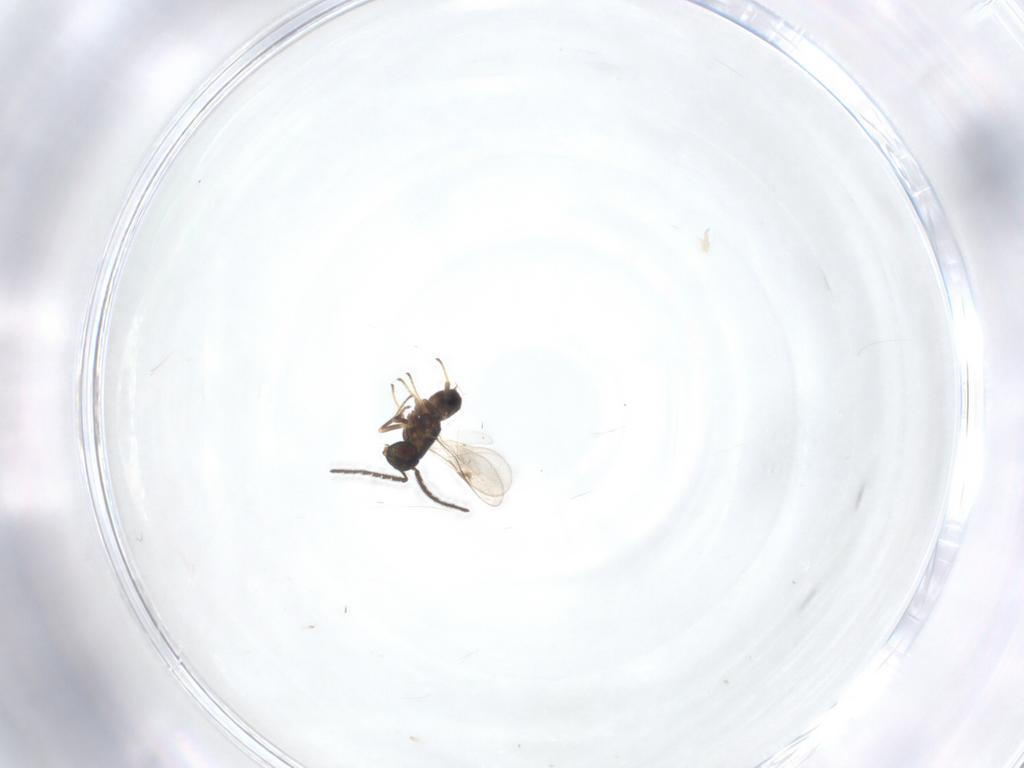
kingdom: Animalia
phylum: Arthropoda
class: Insecta
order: Hymenoptera
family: Encyrtidae
